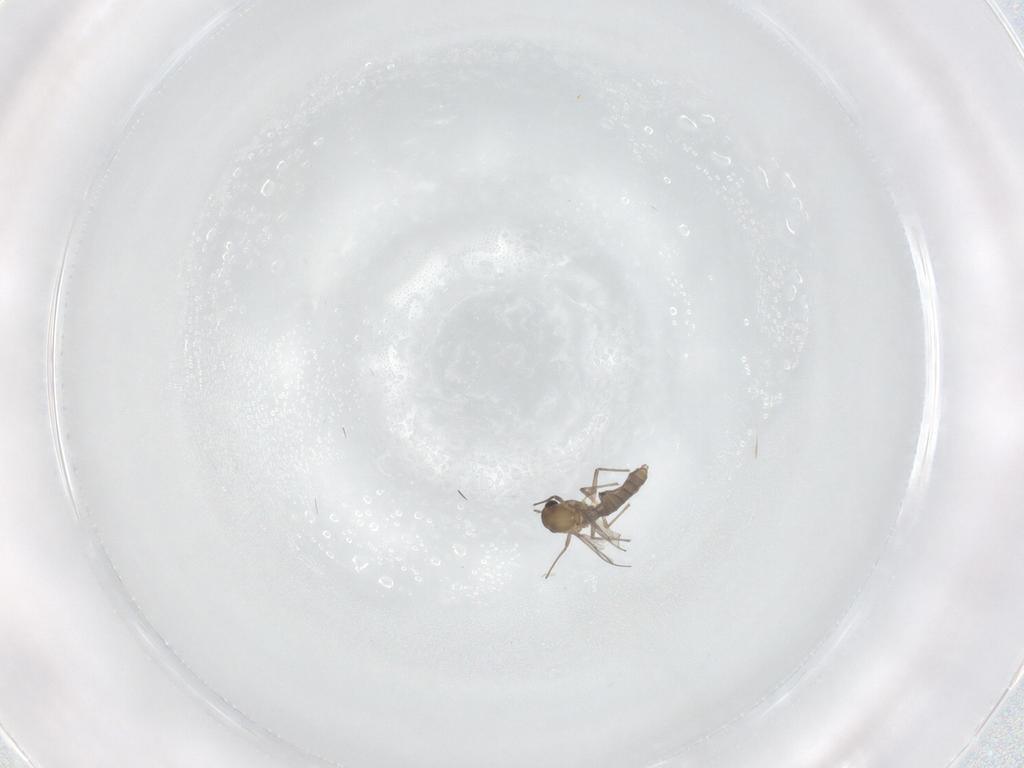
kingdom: Animalia
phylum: Arthropoda
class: Insecta
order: Diptera
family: Chironomidae
